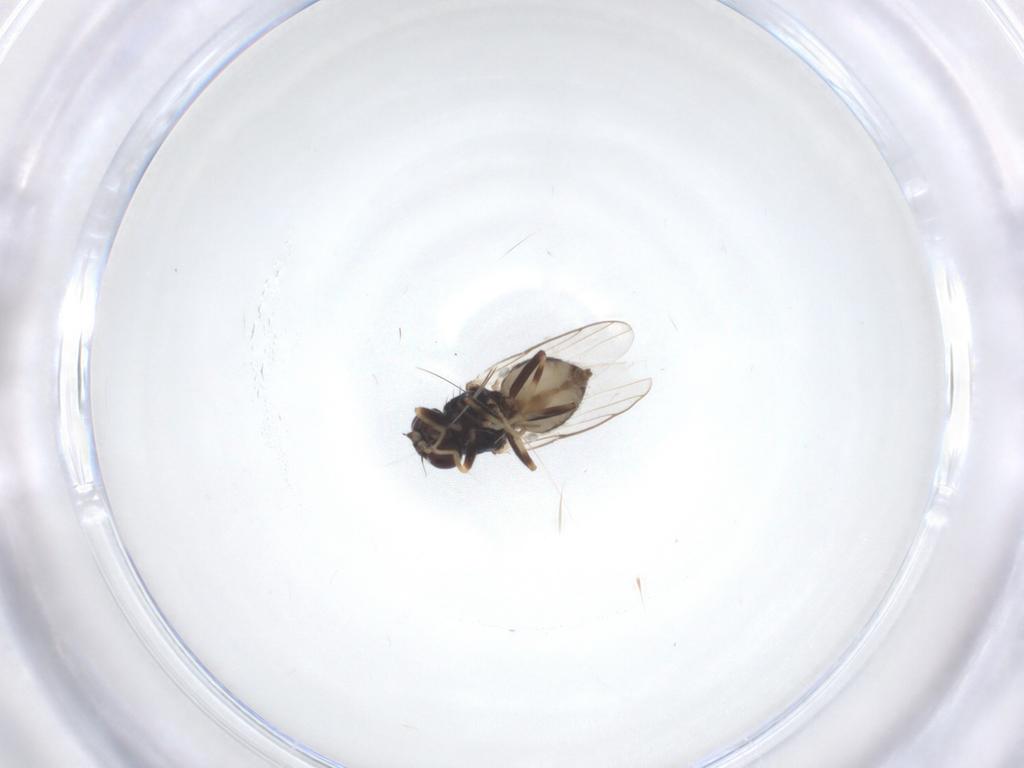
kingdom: Animalia
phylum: Arthropoda
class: Insecta
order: Diptera
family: Chloropidae
